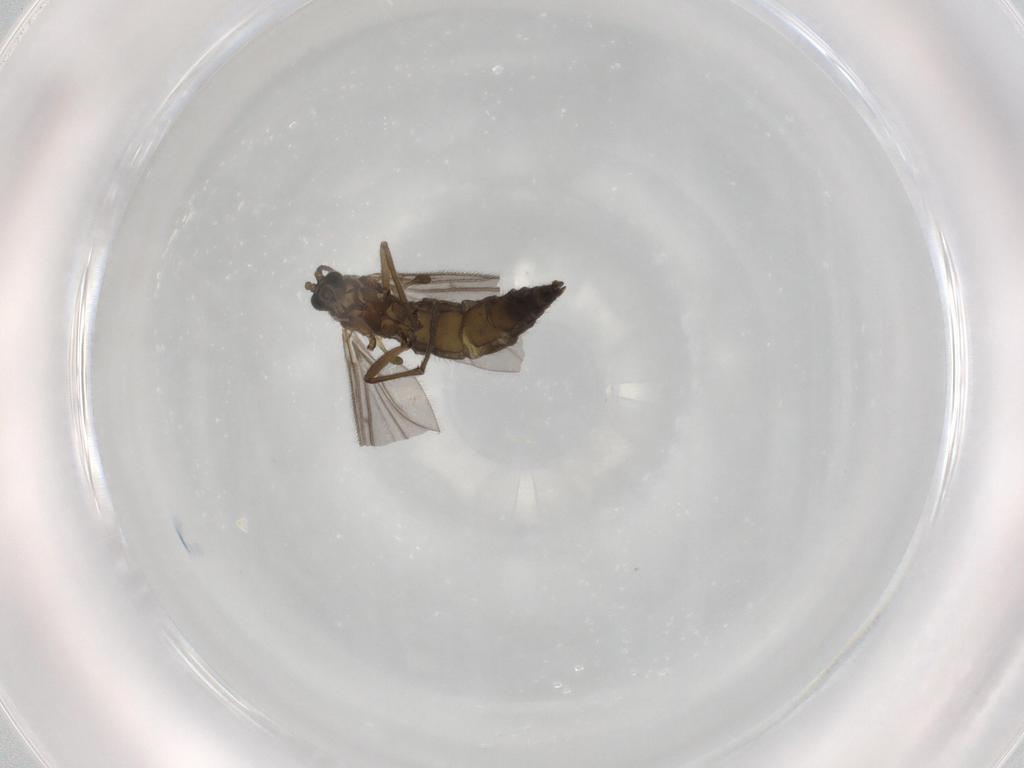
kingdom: Animalia
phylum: Arthropoda
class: Insecta
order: Diptera
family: Sciaridae
